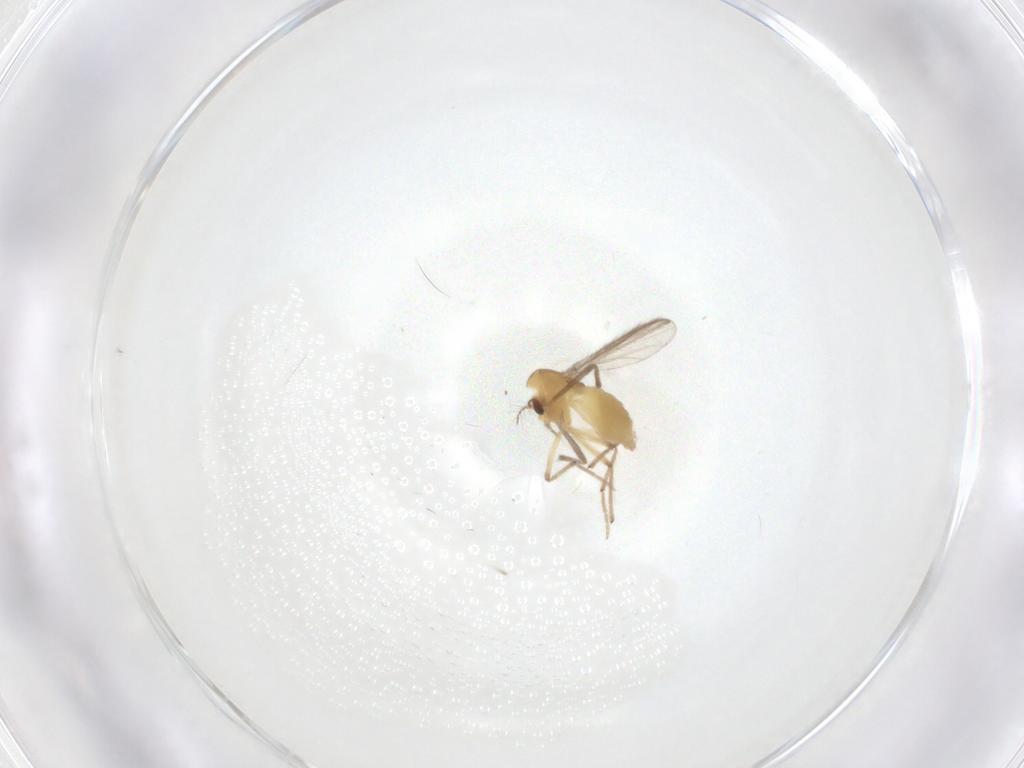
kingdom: Animalia
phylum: Arthropoda
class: Insecta
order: Diptera
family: Chironomidae
